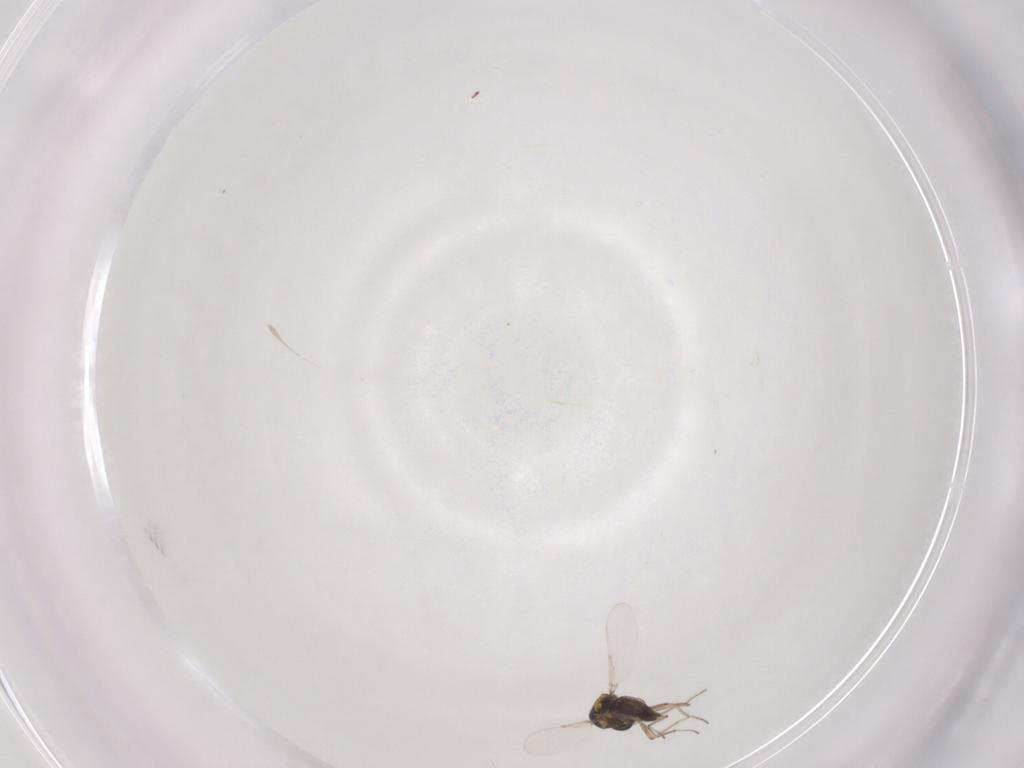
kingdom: Animalia
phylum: Arthropoda
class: Insecta
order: Diptera
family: Ceratopogonidae
